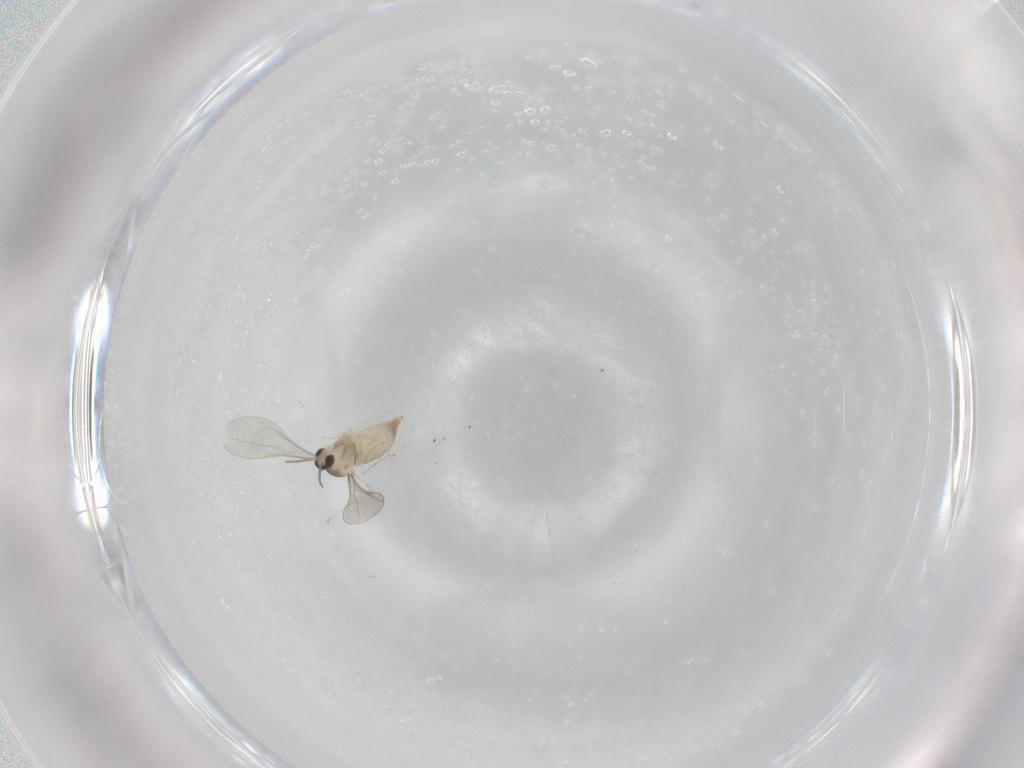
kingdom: Animalia
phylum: Arthropoda
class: Insecta
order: Diptera
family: Cecidomyiidae
